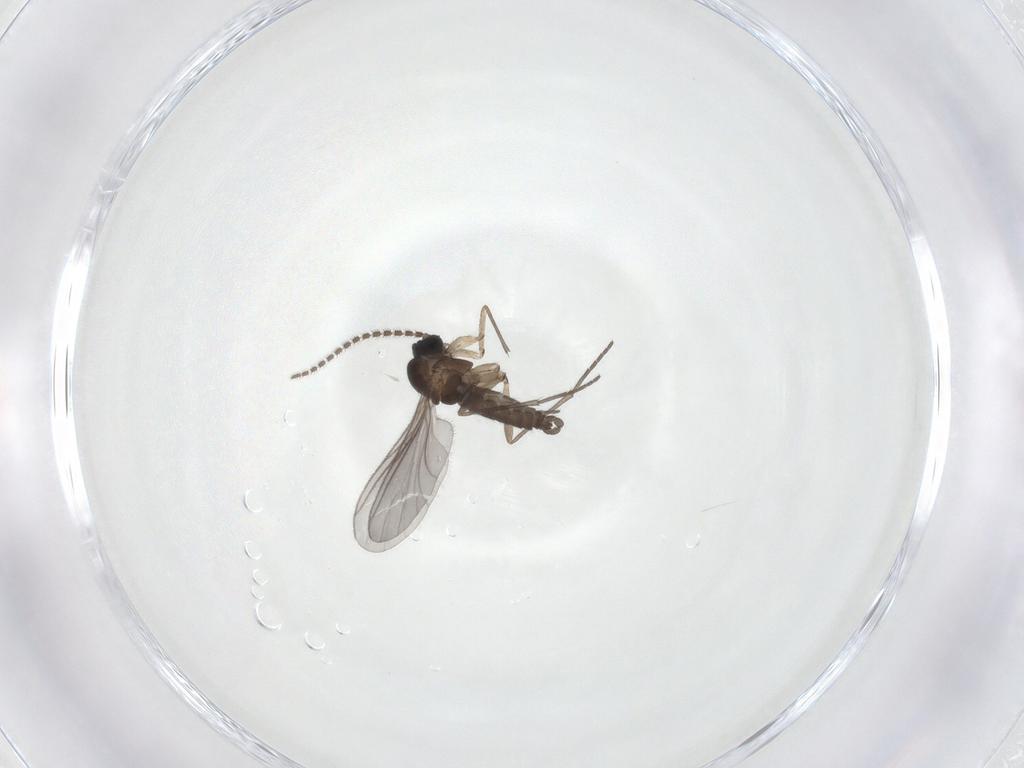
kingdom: Animalia
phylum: Arthropoda
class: Insecta
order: Diptera
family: Sciaridae
